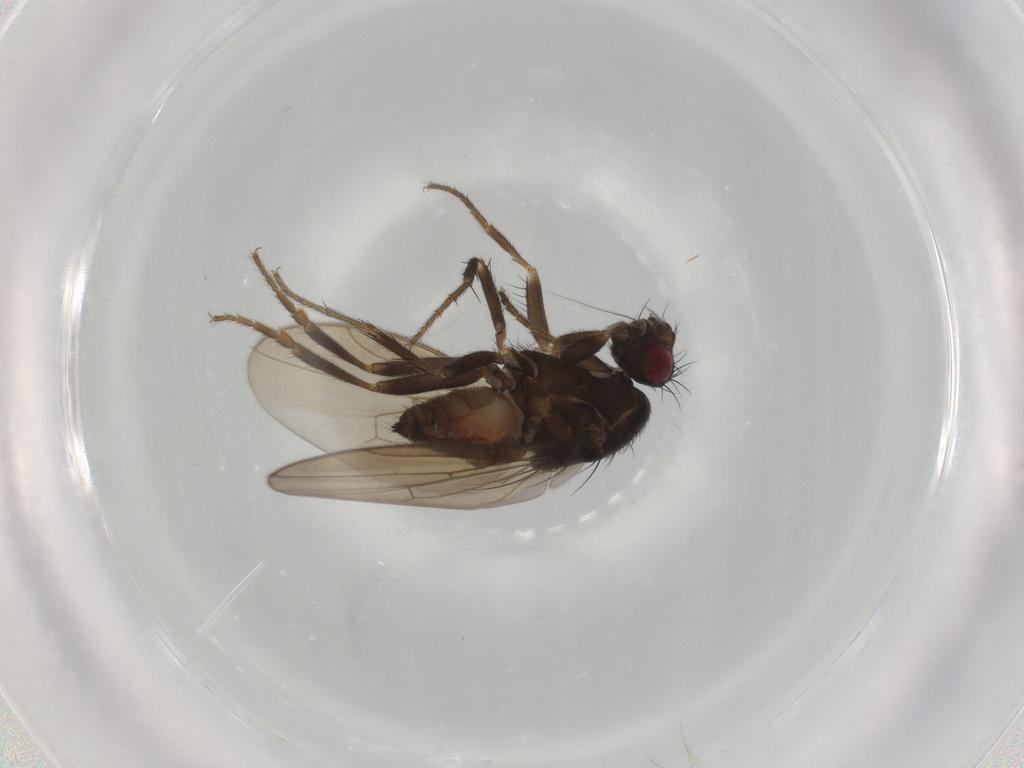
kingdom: Animalia
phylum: Arthropoda
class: Insecta
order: Diptera
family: Sphaeroceridae
